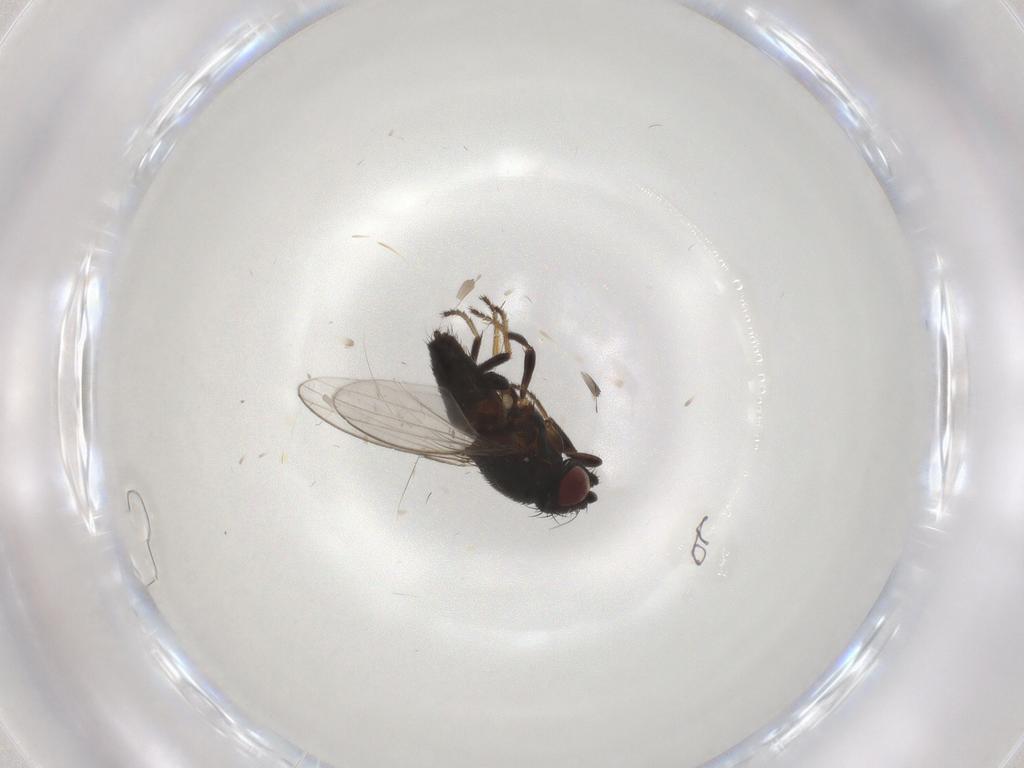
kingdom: Animalia
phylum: Arthropoda
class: Insecta
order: Diptera
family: Milichiidae
